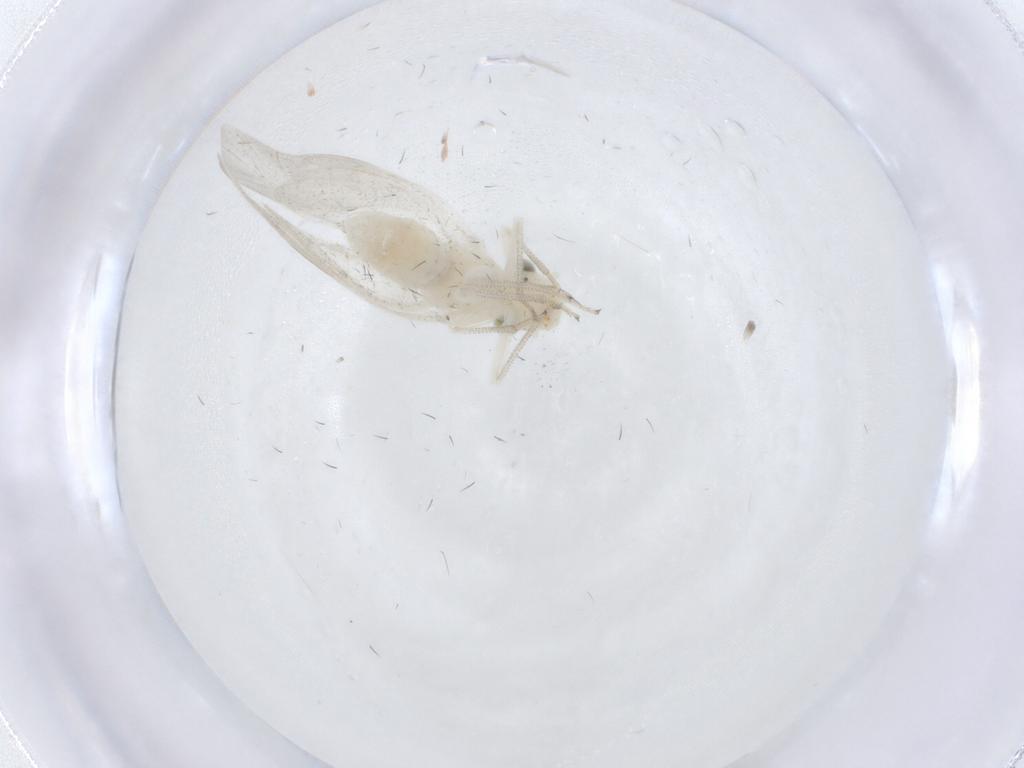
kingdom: Animalia
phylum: Arthropoda
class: Insecta
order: Psocodea
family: Caeciliusidae
